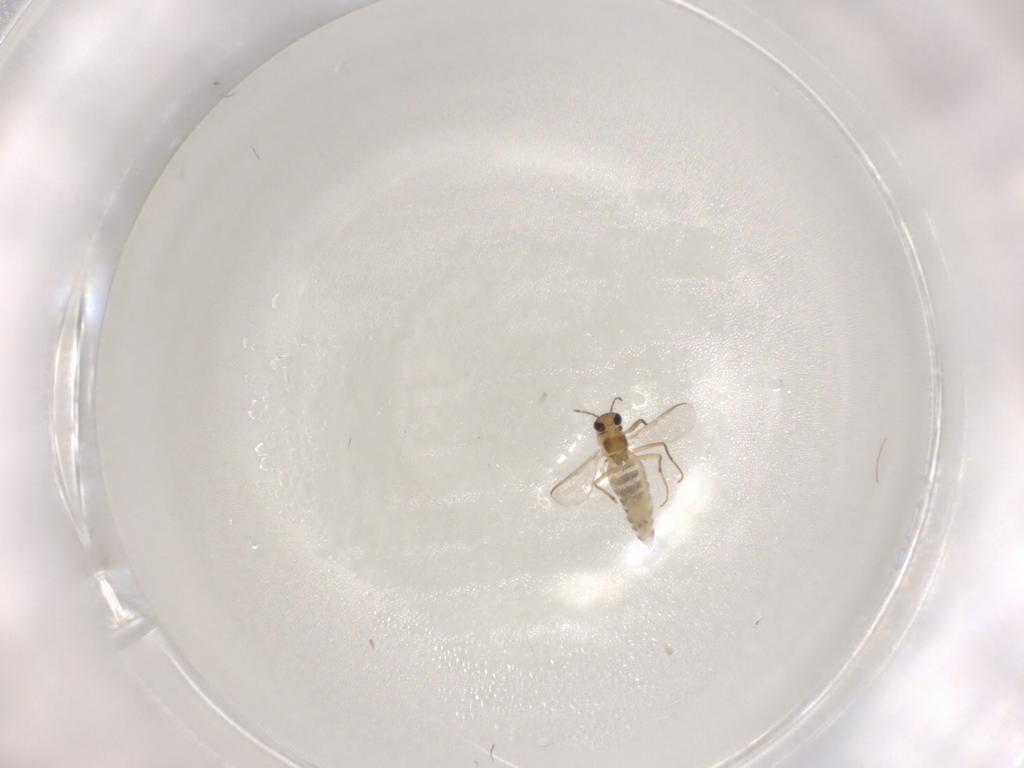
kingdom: Animalia
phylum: Arthropoda
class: Insecta
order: Diptera
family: Chironomidae
